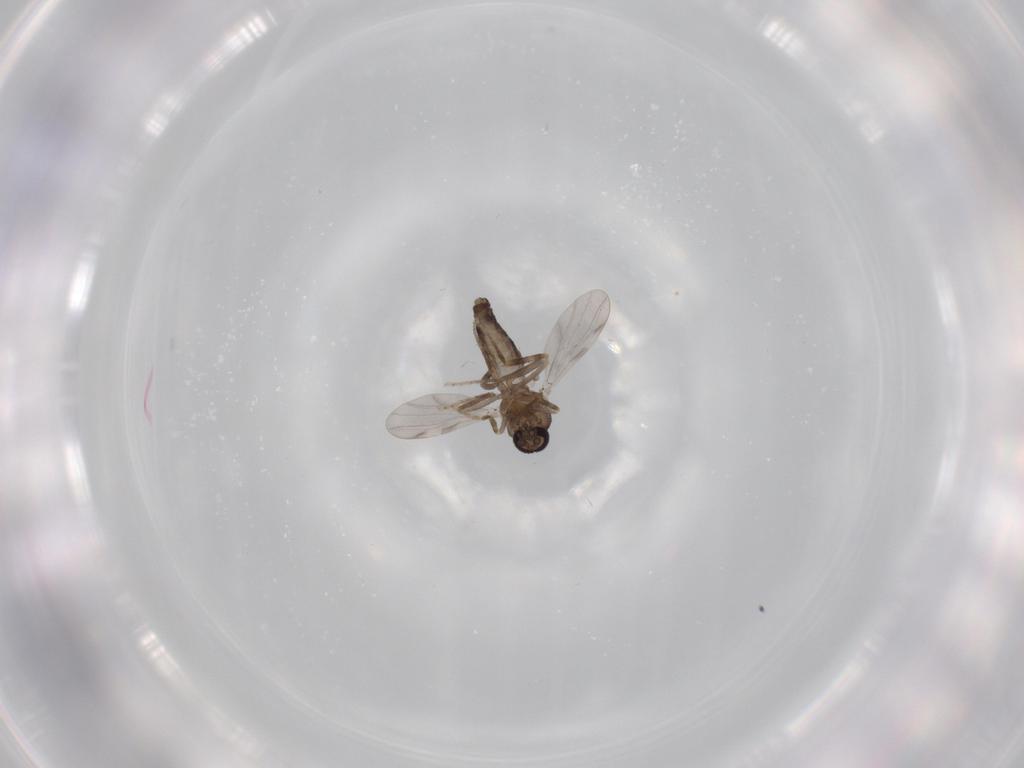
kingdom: Animalia
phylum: Arthropoda
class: Insecta
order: Diptera
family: Ceratopogonidae
